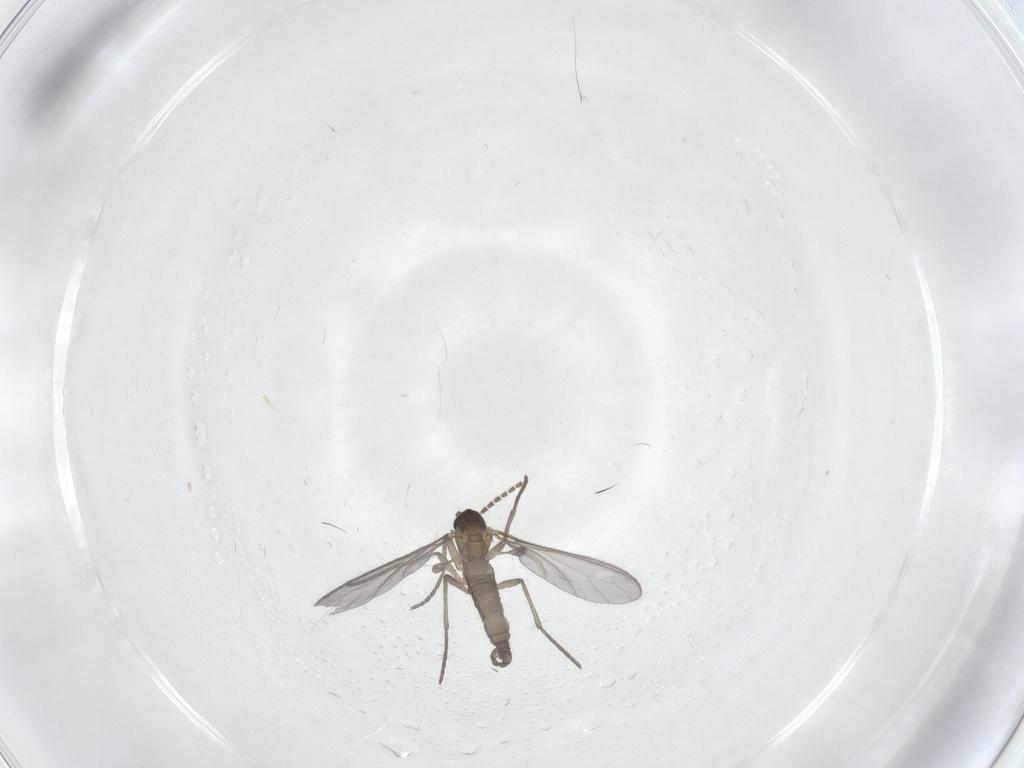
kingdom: Animalia
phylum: Arthropoda
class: Insecta
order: Diptera
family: Sciaridae
